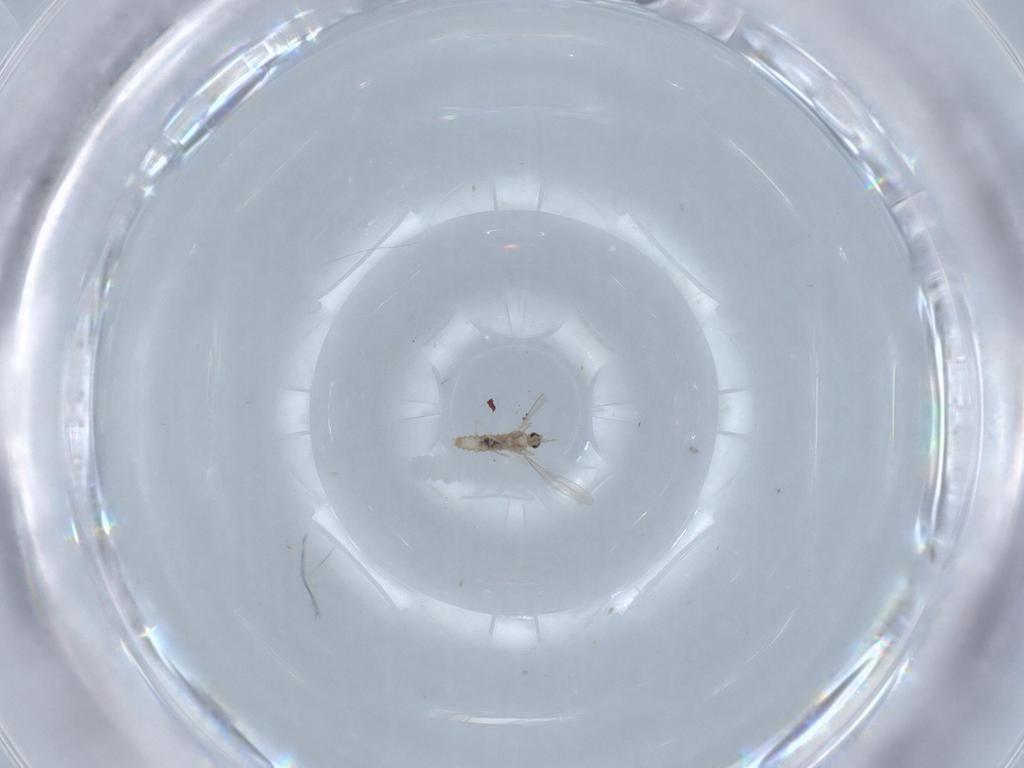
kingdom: Animalia
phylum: Arthropoda
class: Insecta
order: Diptera
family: Cecidomyiidae
